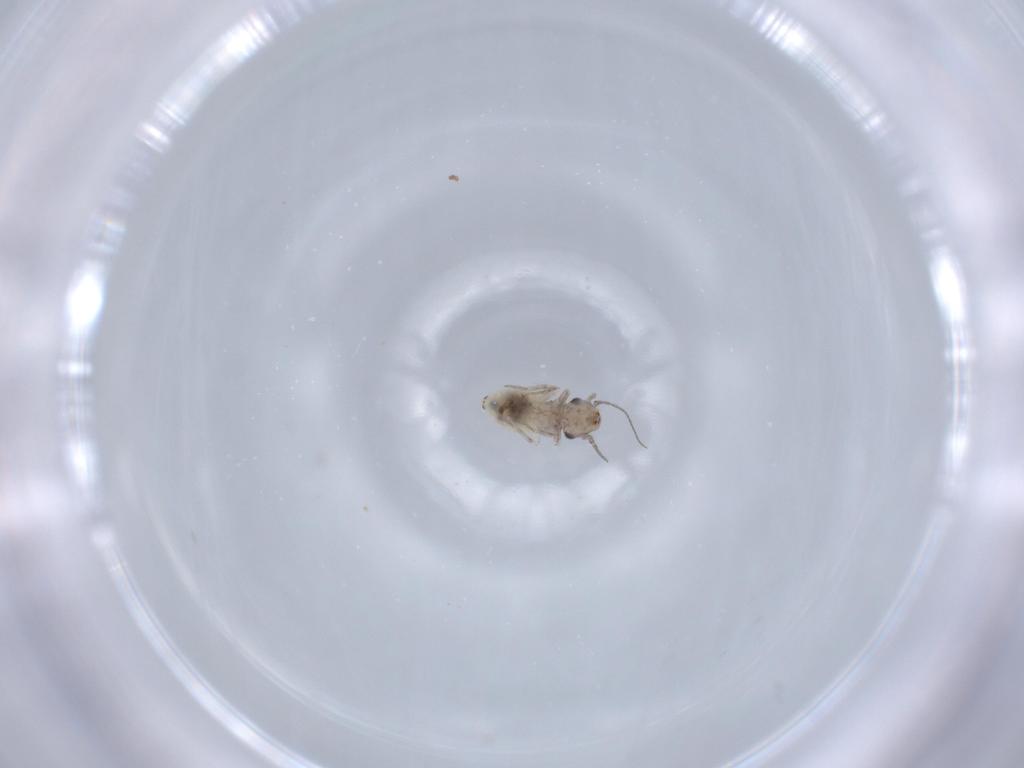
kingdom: Animalia
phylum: Arthropoda
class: Insecta
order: Psocodea
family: Lepidopsocidae
